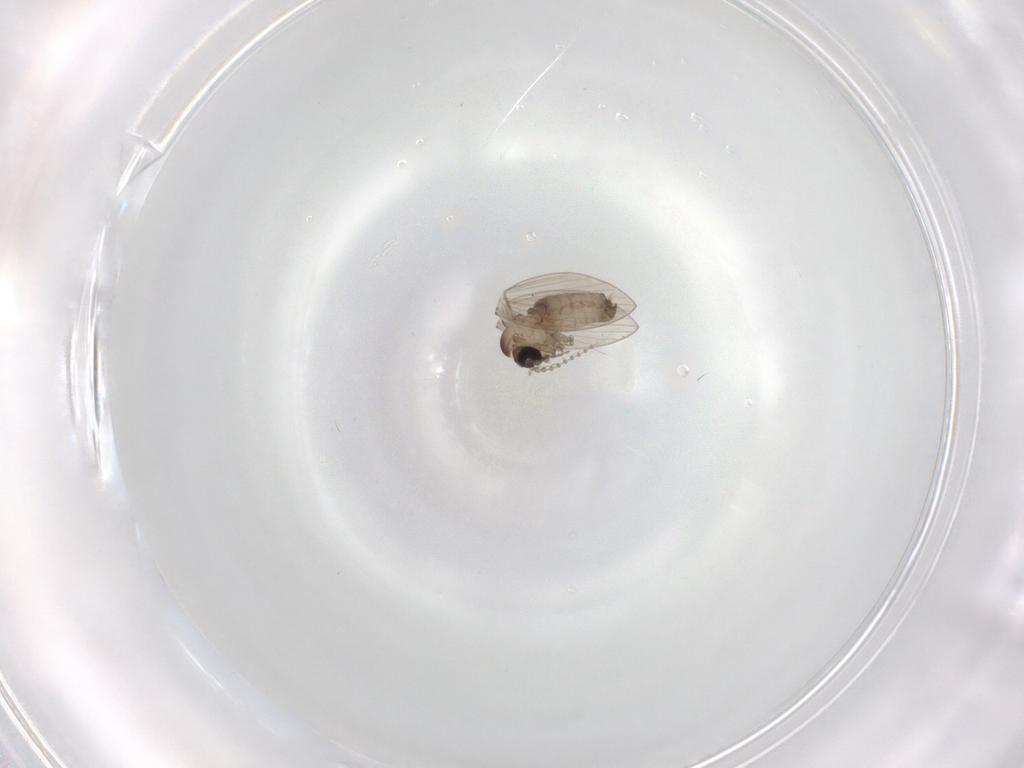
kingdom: Animalia
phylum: Arthropoda
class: Insecta
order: Diptera
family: Psychodidae
